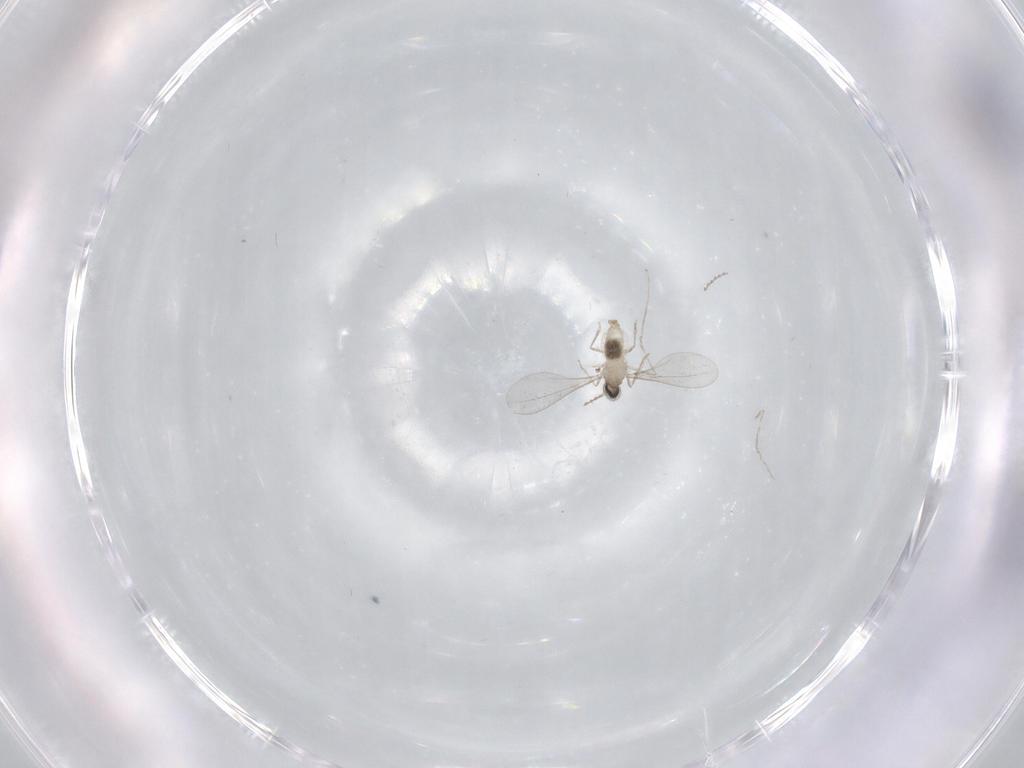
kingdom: Animalia
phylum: Arthropoda
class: Insecta
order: Diptera
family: Cecidomyiidae
